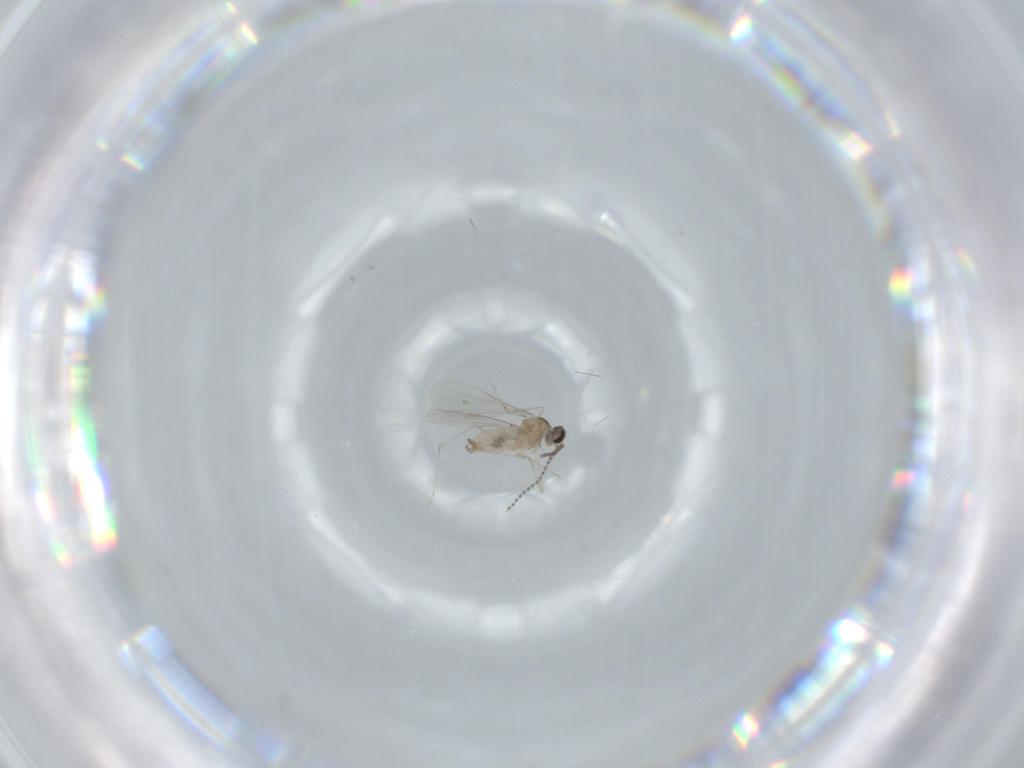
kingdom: Animalia
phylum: Arthropoda
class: Insecta
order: Diptera
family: Cecidomyiidae
